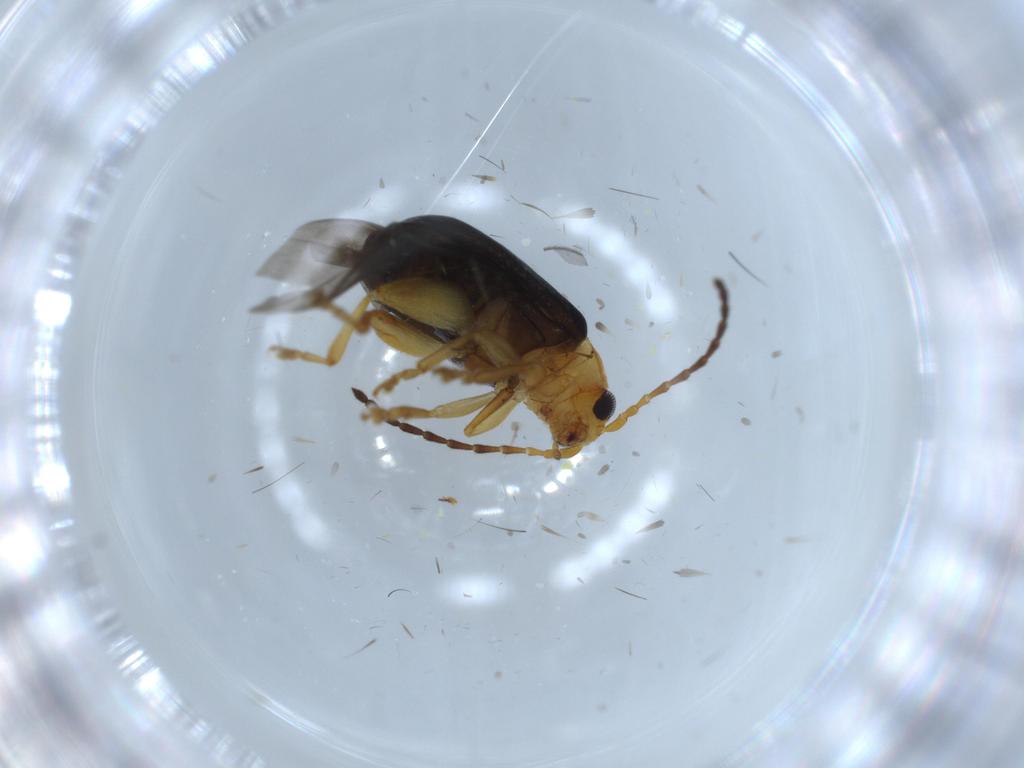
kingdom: Animalia
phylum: Arthropoda
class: Insecta
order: Coleoptera
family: Chrysomelidae
